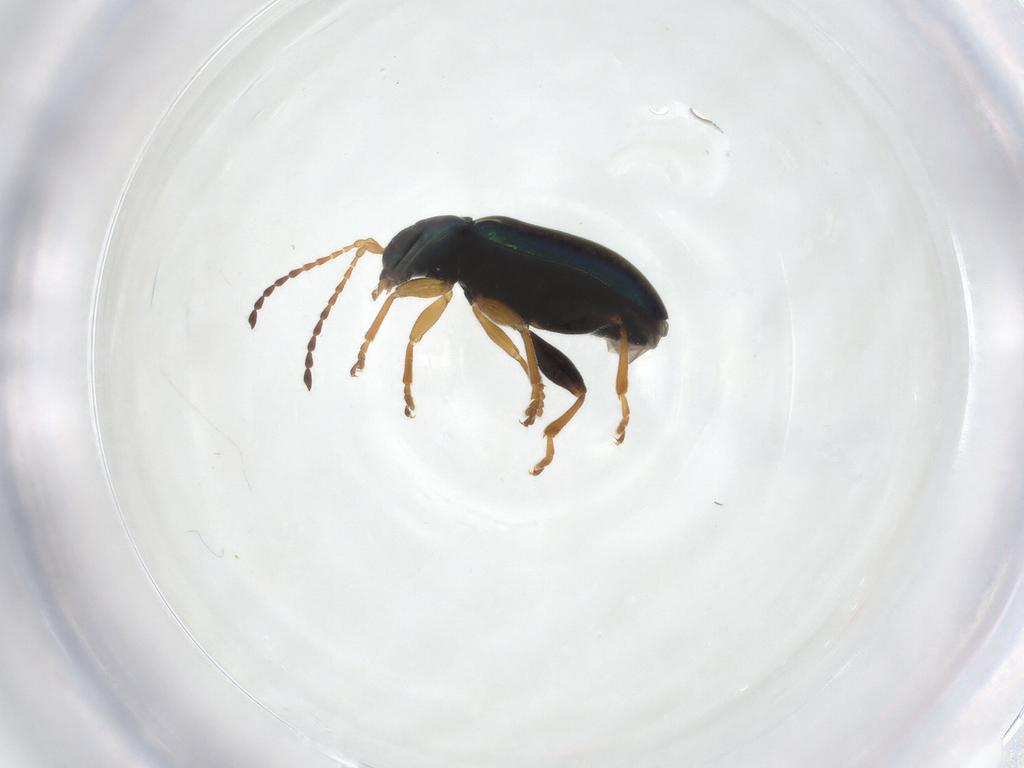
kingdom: Animalia
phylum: Arthropoda
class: Insecta
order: Coleoptera
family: Chrysomelidae
